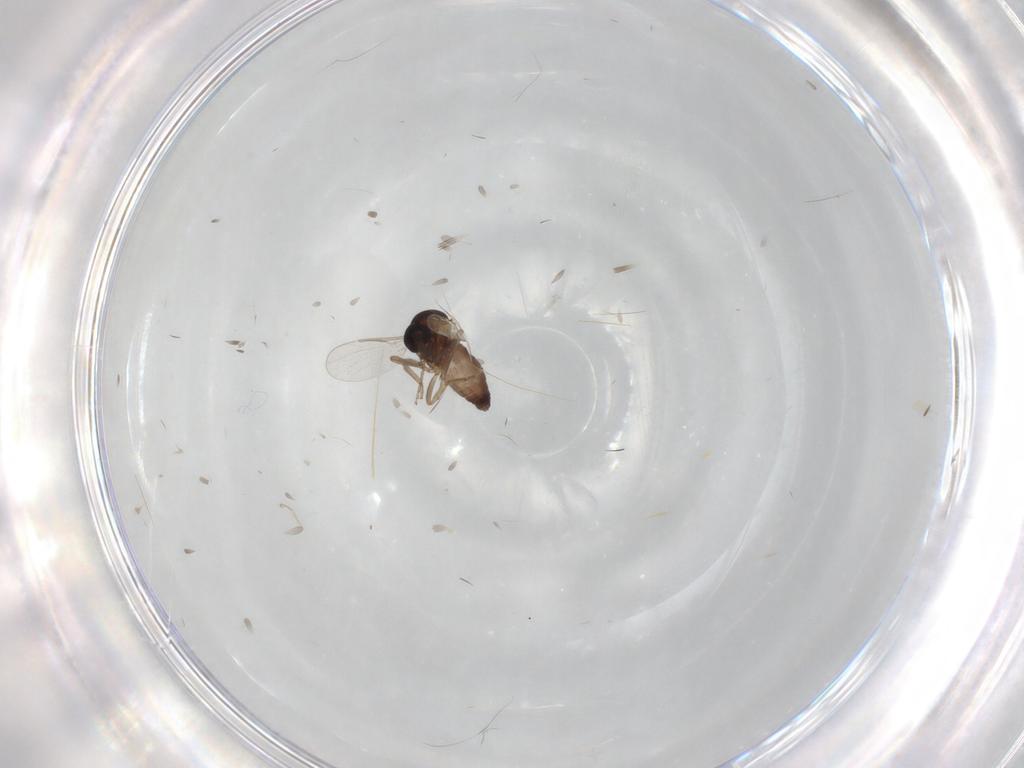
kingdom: Animalia
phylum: Arthropoda
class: Insecta
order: Diptera
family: Ceratopogonidae
